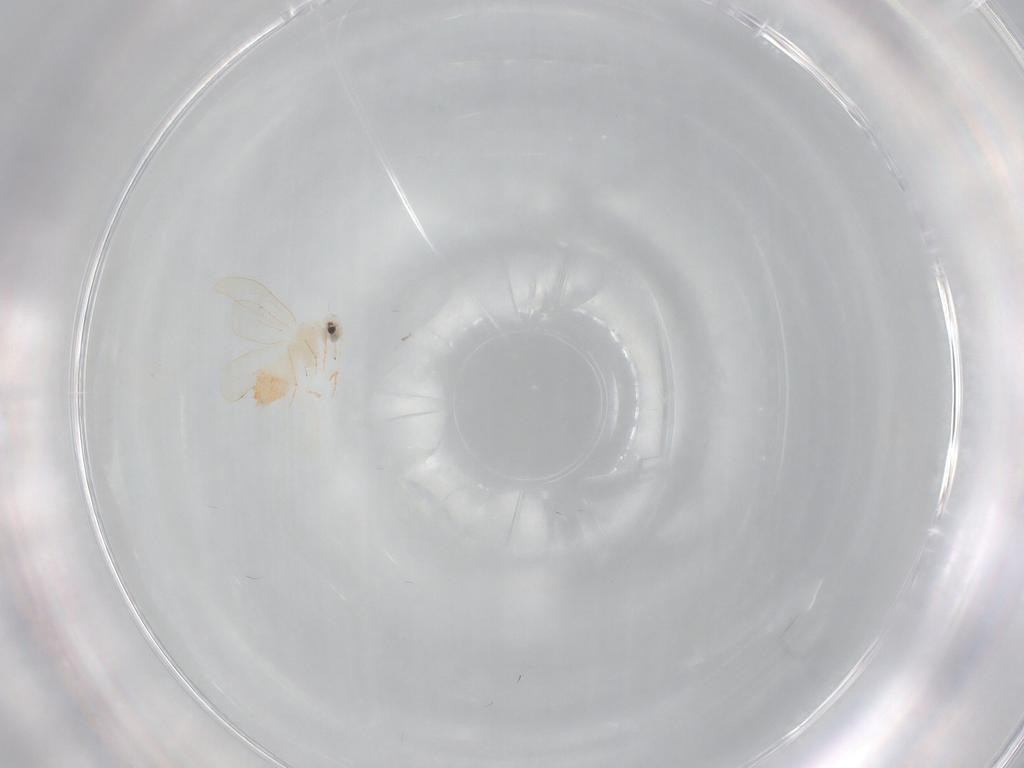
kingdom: Animalia
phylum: Arthropoda
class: Insecta
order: Hemiptera
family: Aleyrodidae
